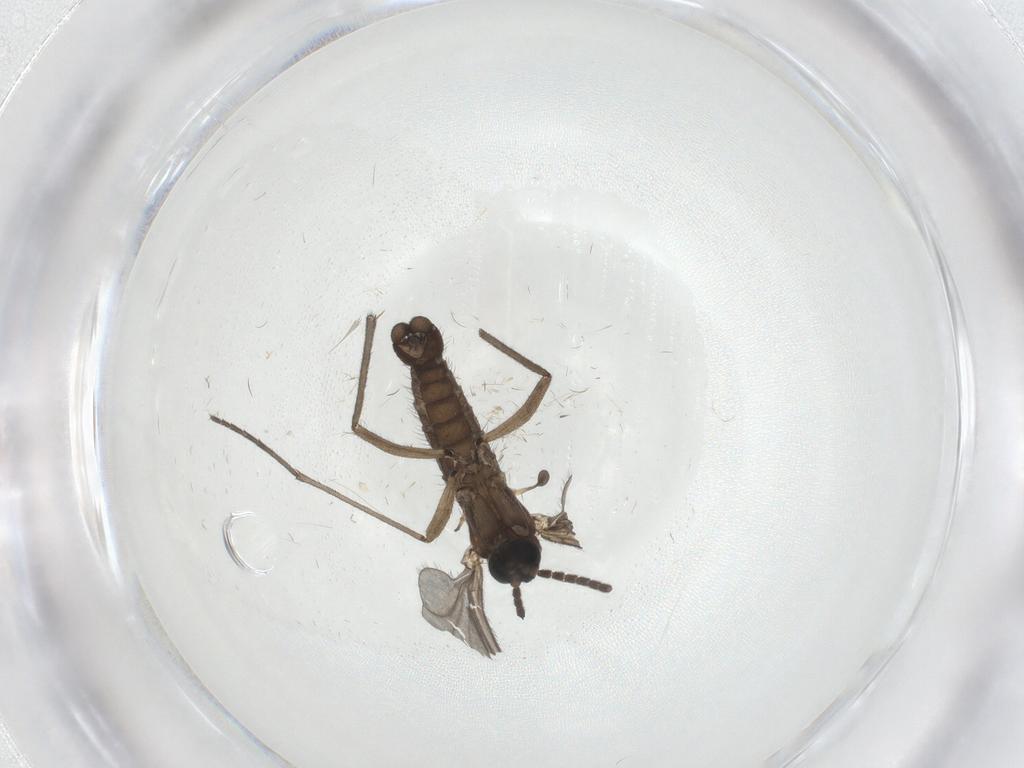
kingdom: Animalia
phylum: Arthropoda
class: Insecta
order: Diptera
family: Sciaridae
